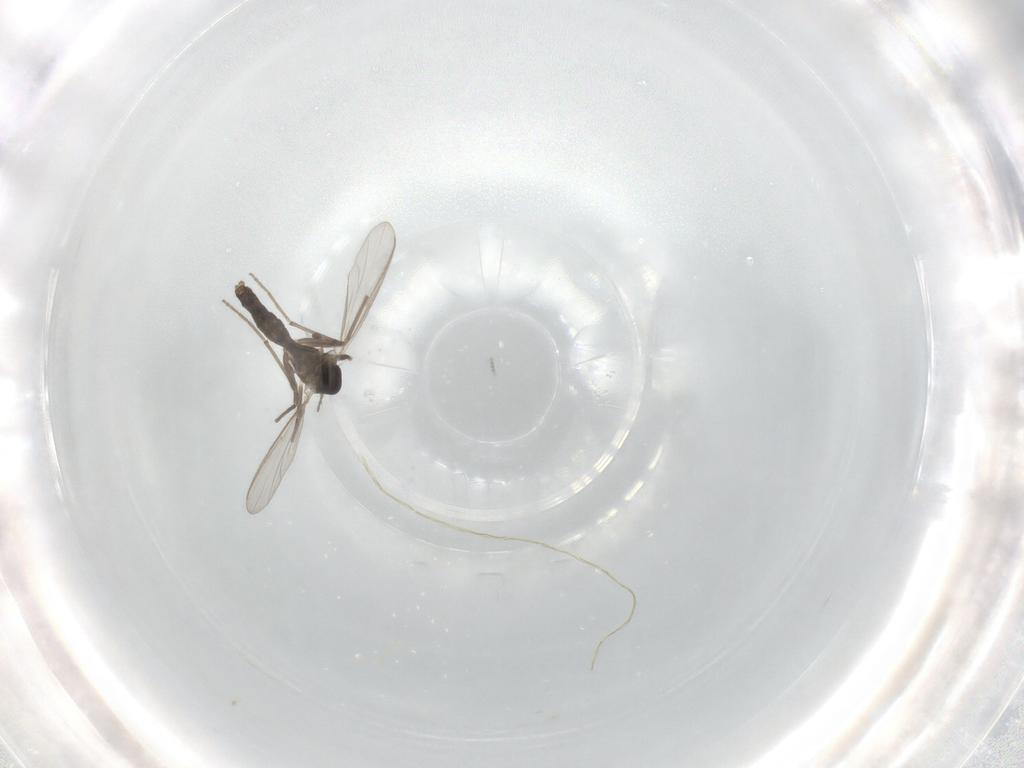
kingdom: Animalia
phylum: Arthropoda
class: Insecta
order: Diptera
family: Chironomidae
